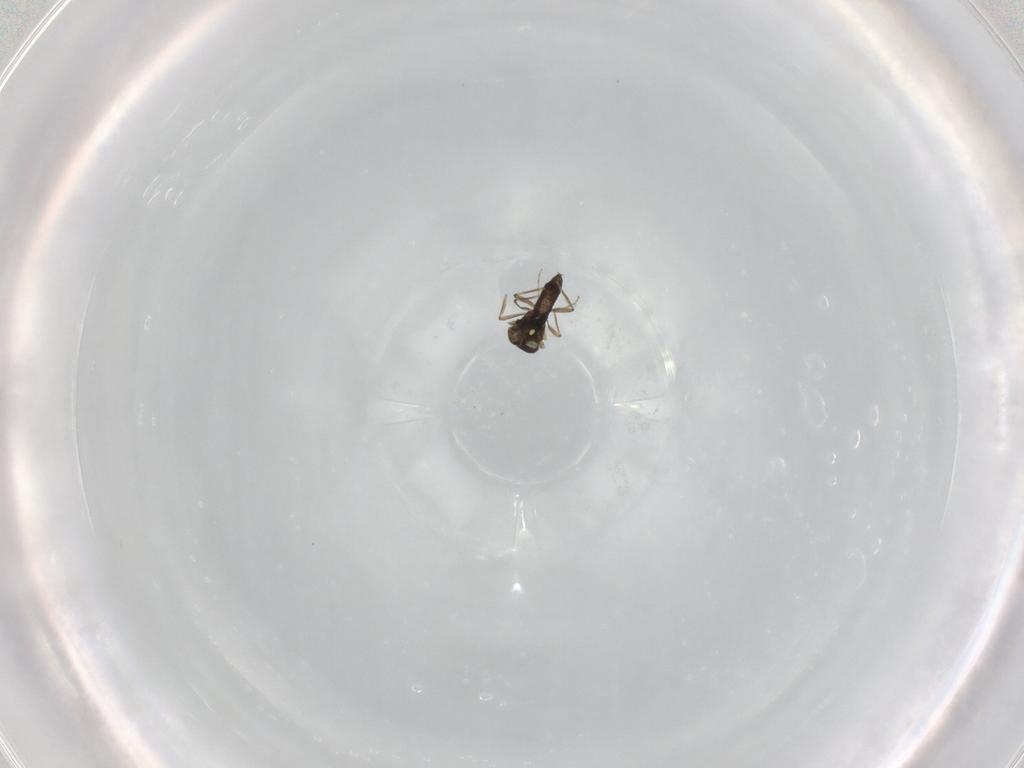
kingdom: Animalia
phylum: Arthropoda
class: Insecta
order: Diptera
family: Ceratopogonidae
